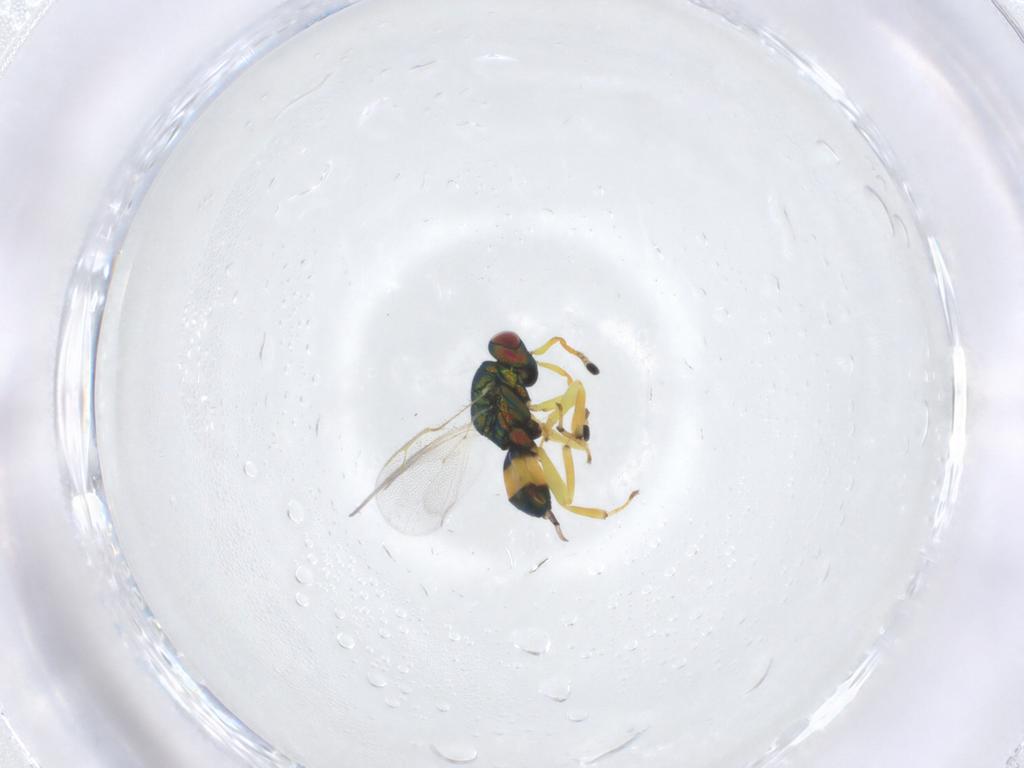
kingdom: Animalia
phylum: Arthropoda
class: Insecta
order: Hymenoptera
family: Pteromalidae
